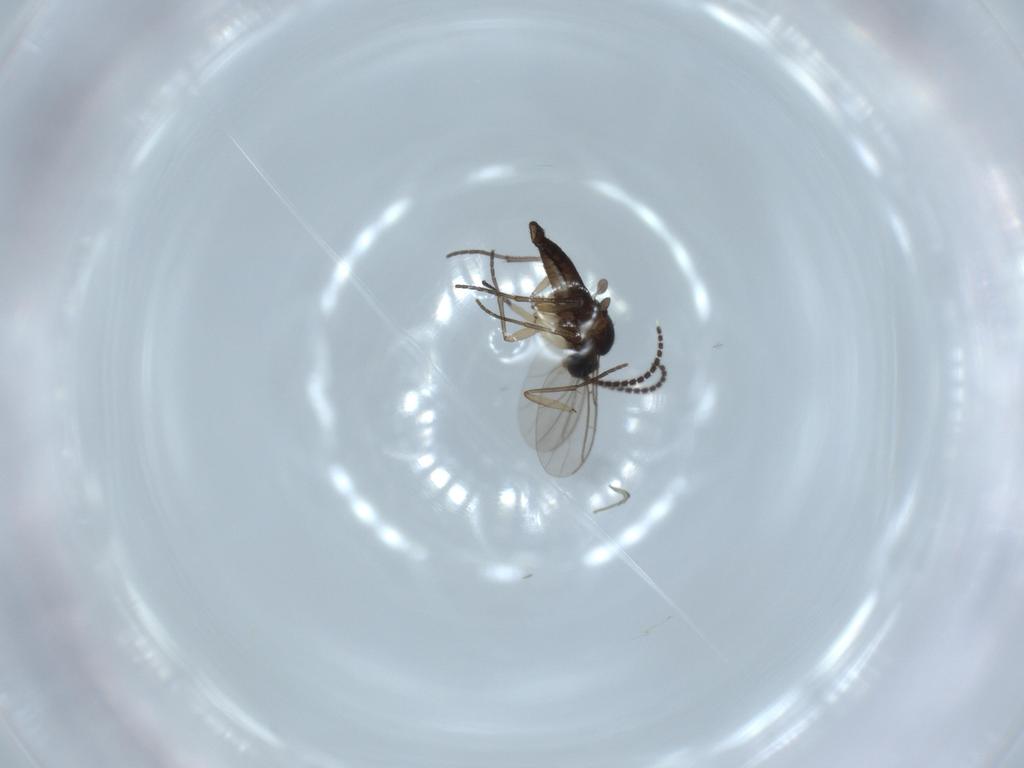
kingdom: Animalia
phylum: Arthropoda
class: Insecta
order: Diptera
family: Sciaridae
